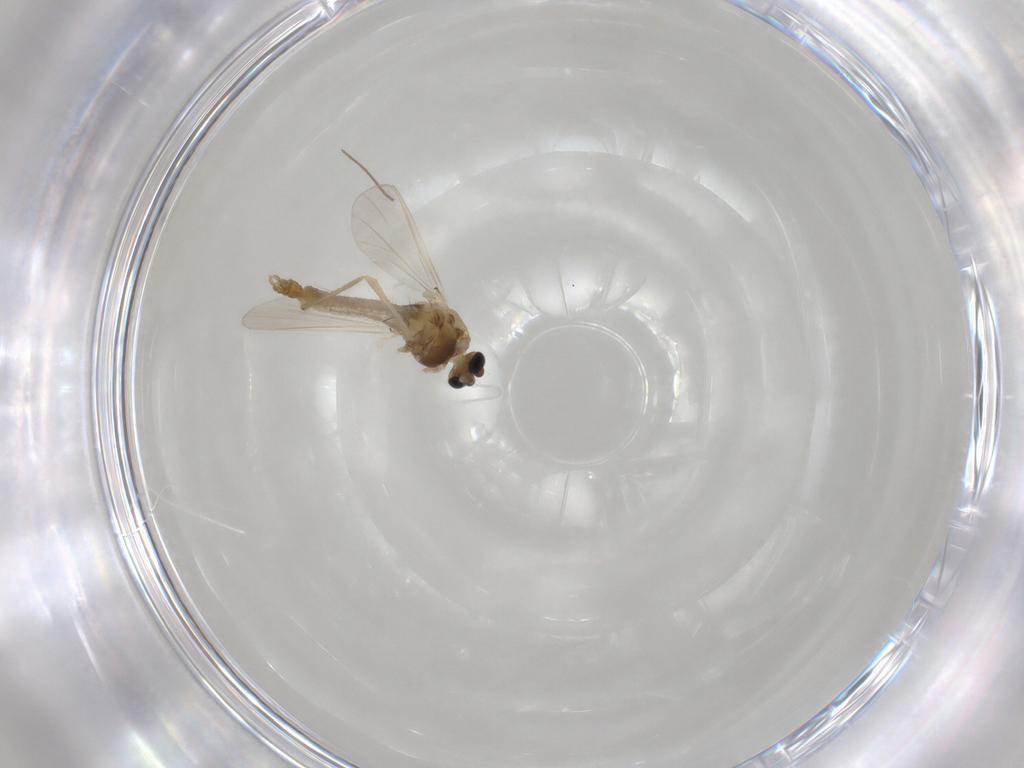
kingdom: Animalia
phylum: Arthropoda
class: Insecta
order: Diptera
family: Chironomidae
